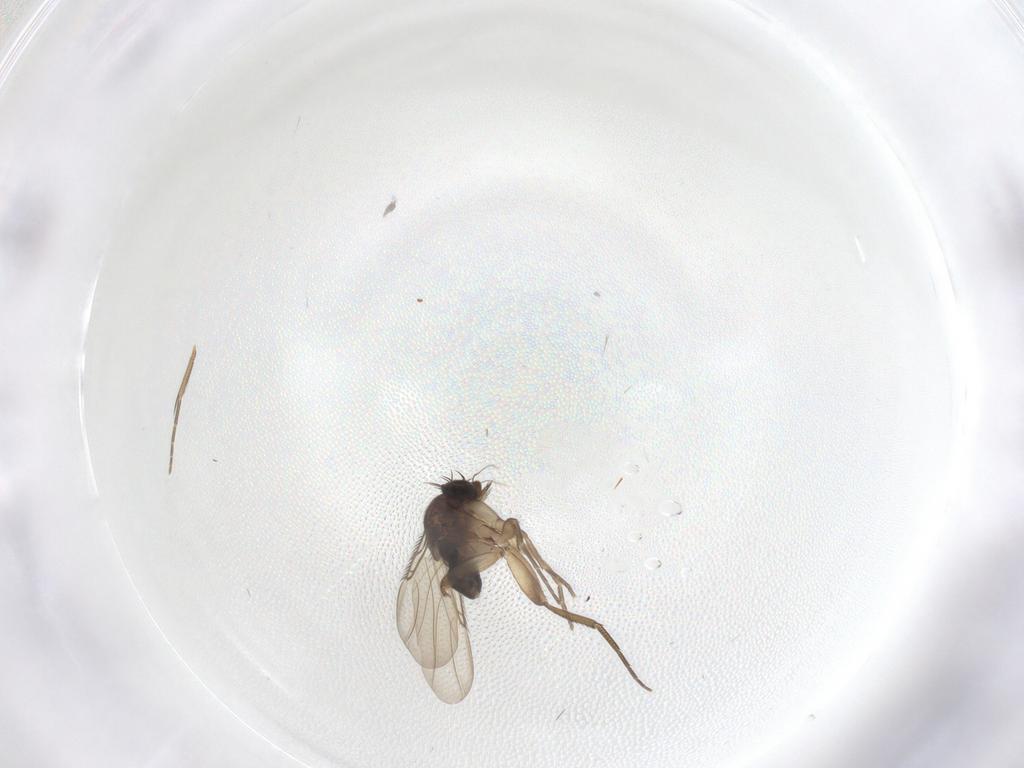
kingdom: Animalia
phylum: Arthropoda
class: Insecta
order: Diptera
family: Phoridae
